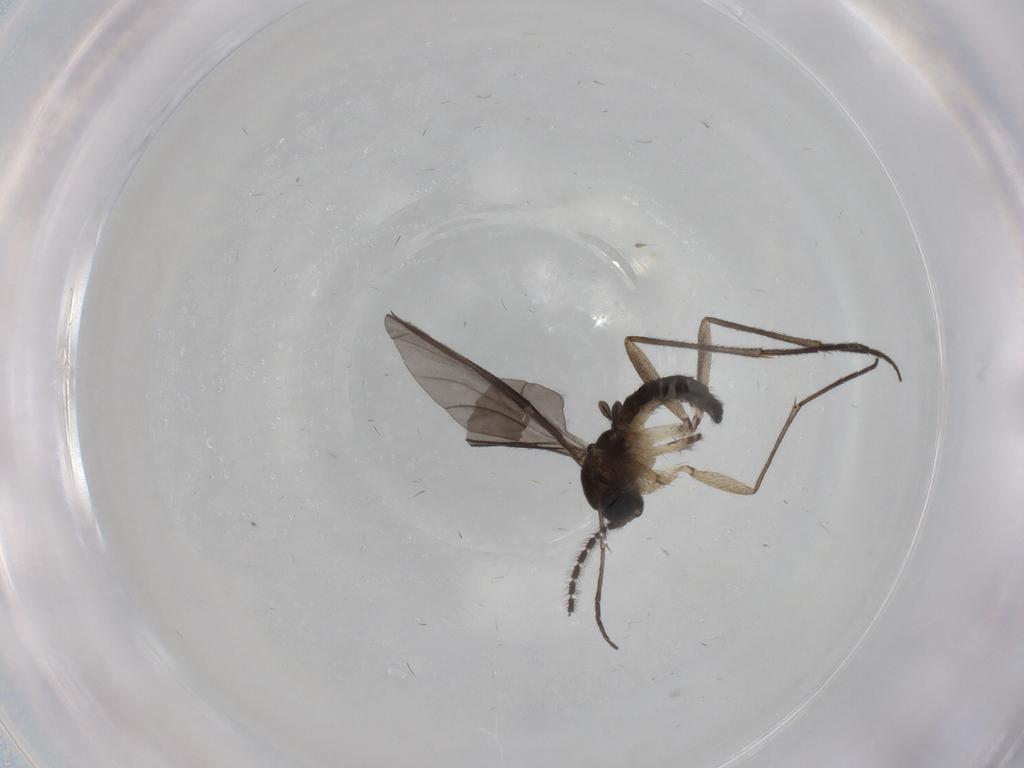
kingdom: Animalia
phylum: Arthropoda
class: Insecta
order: Diptera
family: Sciaridae
